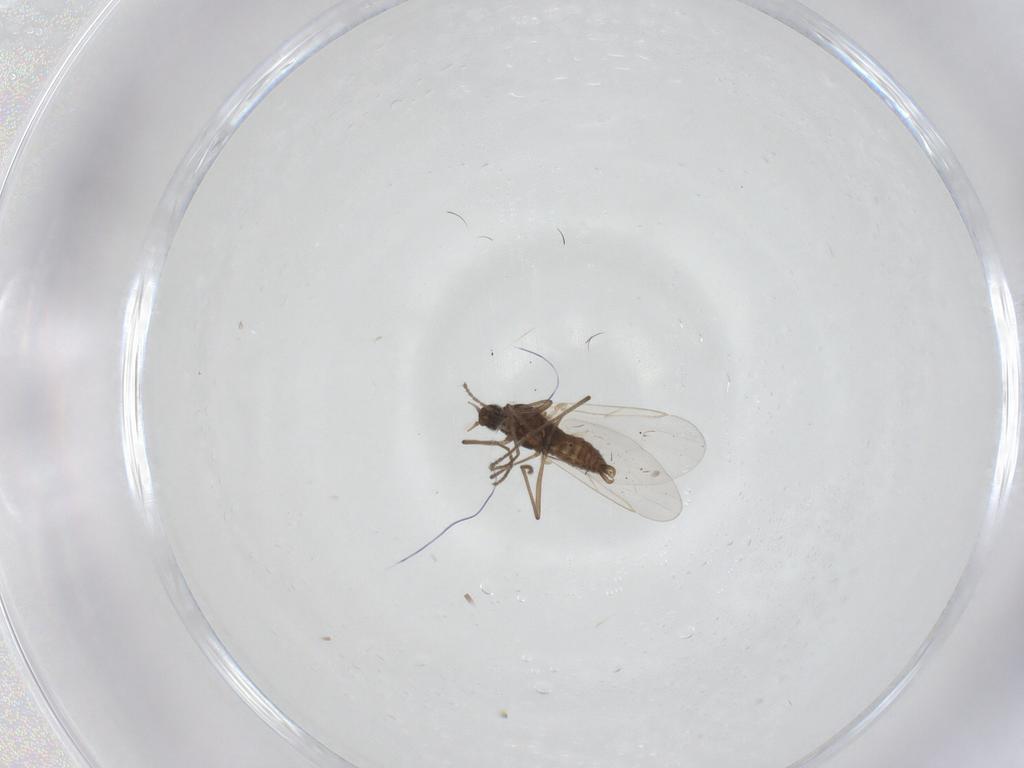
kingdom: Animalia
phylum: Arthropoda
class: Insecta
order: Diptera
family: Cecidomyiidae
